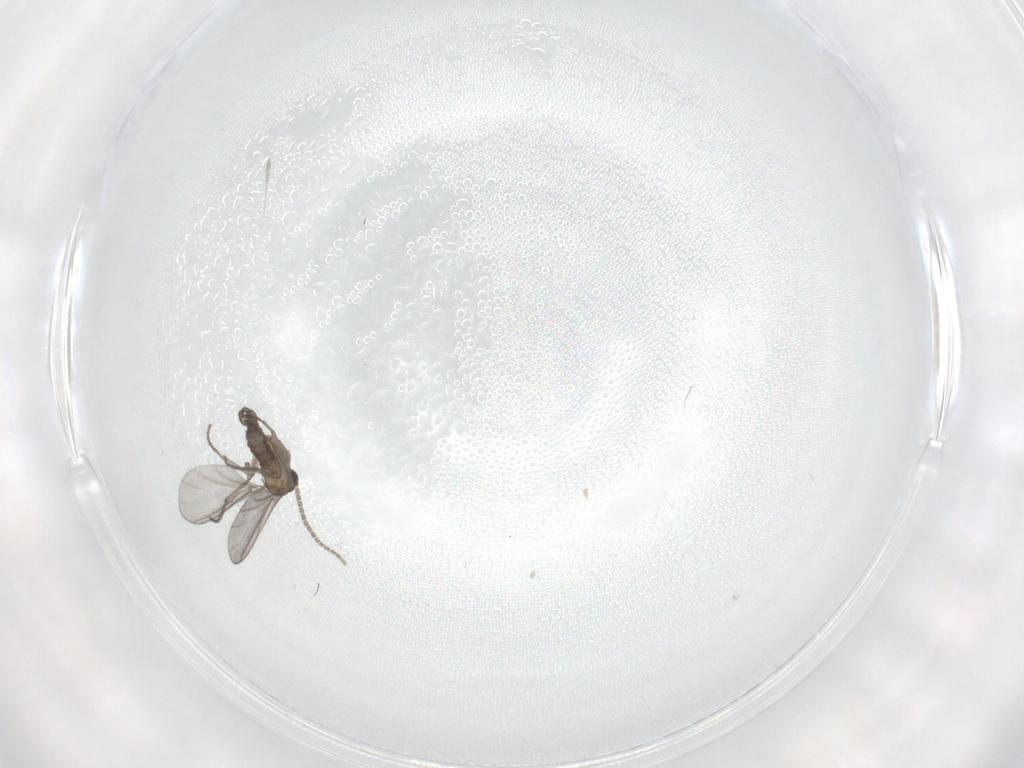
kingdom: Animalia
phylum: Arthropoda
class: Insecta
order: Diptera
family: Sciaridae
